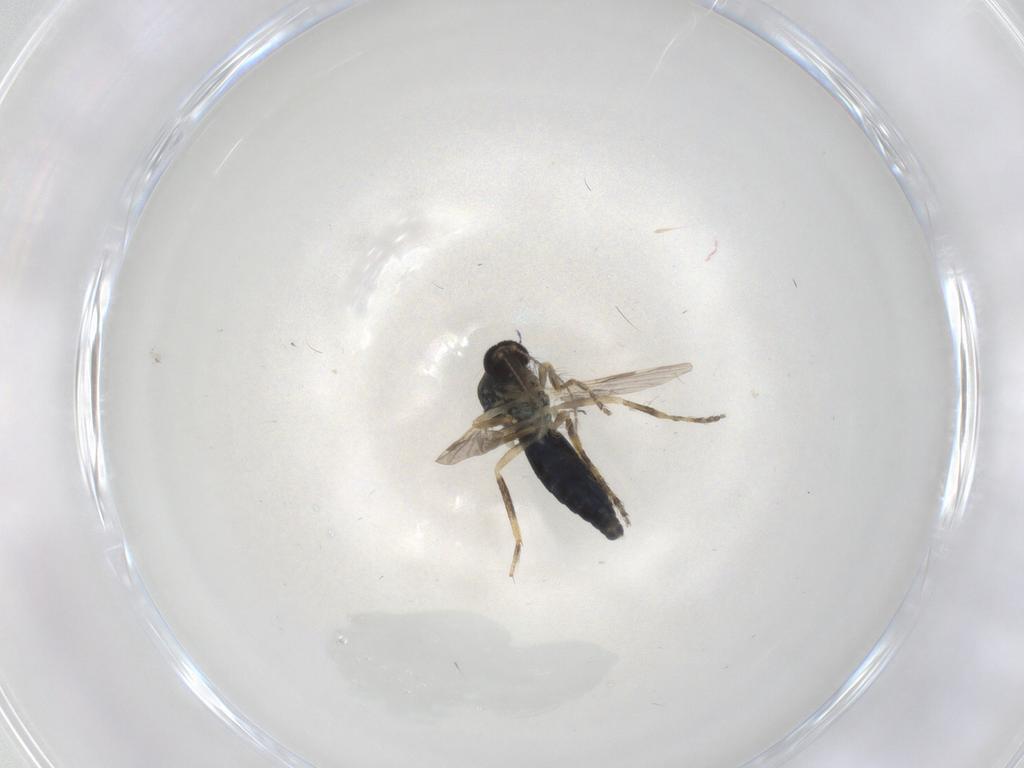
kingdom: Animalia
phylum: Arthropoda
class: Insecta
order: Diptera
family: Ceratopogonidae
